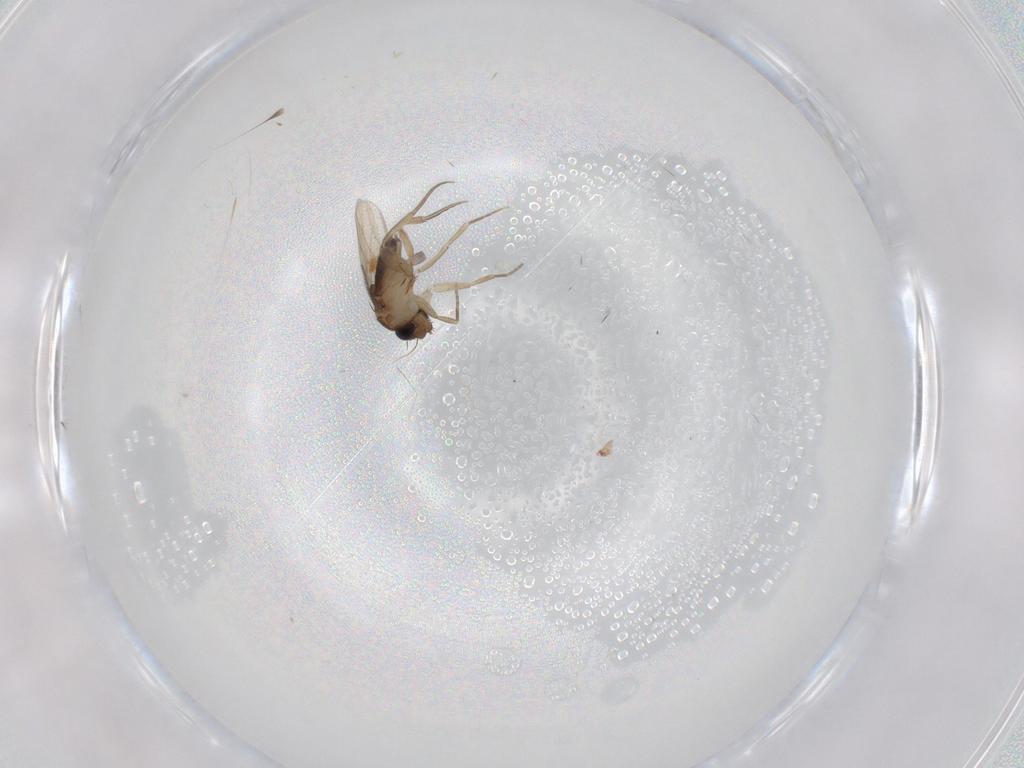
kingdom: Animalia
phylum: Arthropoda
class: Insecta
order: Diptera
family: Phoridae
